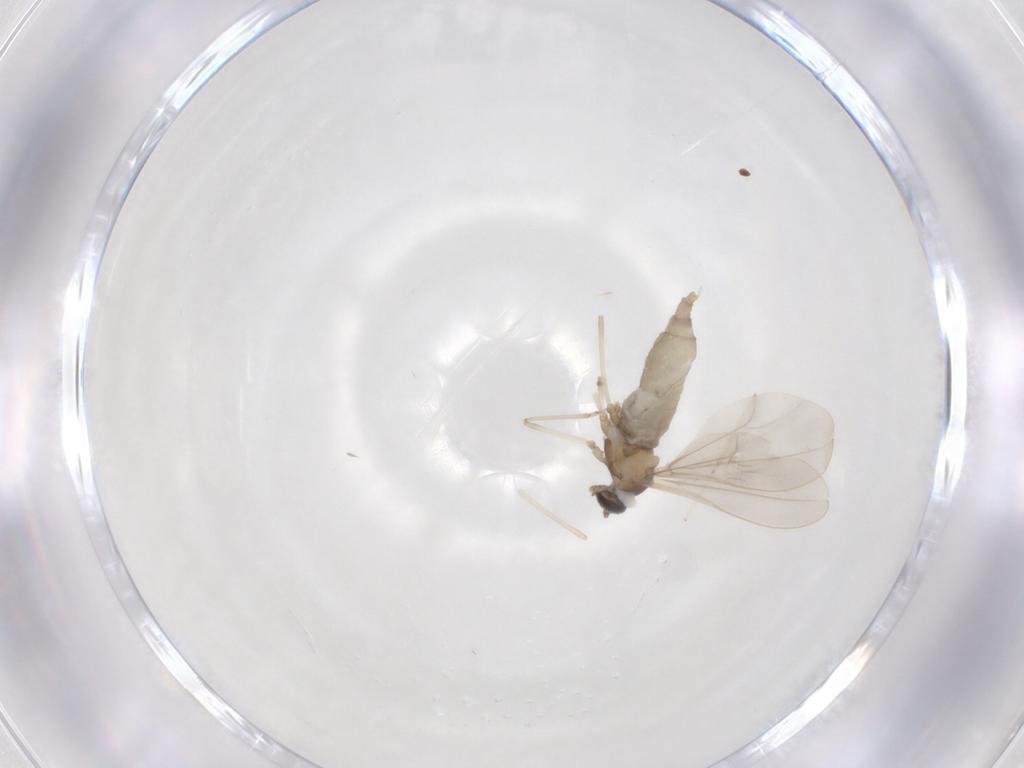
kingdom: Animalia
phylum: Arthropoda
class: Insecta
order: Diptera
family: Cecidomyiidae
